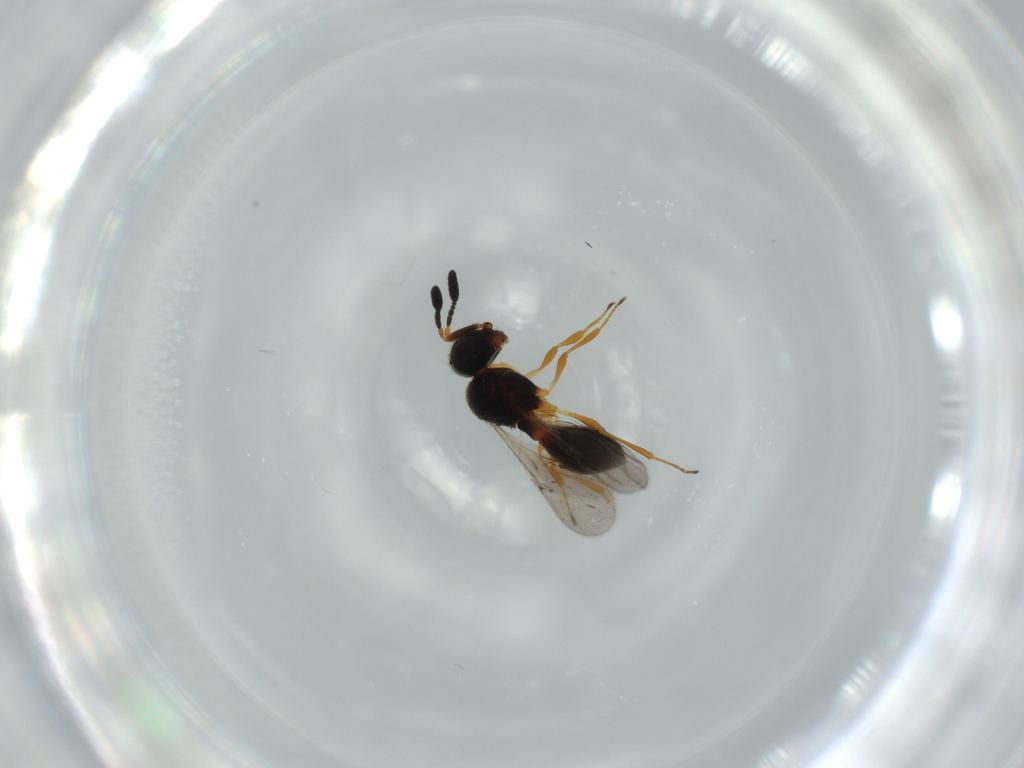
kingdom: Animalia
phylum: Arthropoda
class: Insecta
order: Hymenoptera
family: Scelionidae
